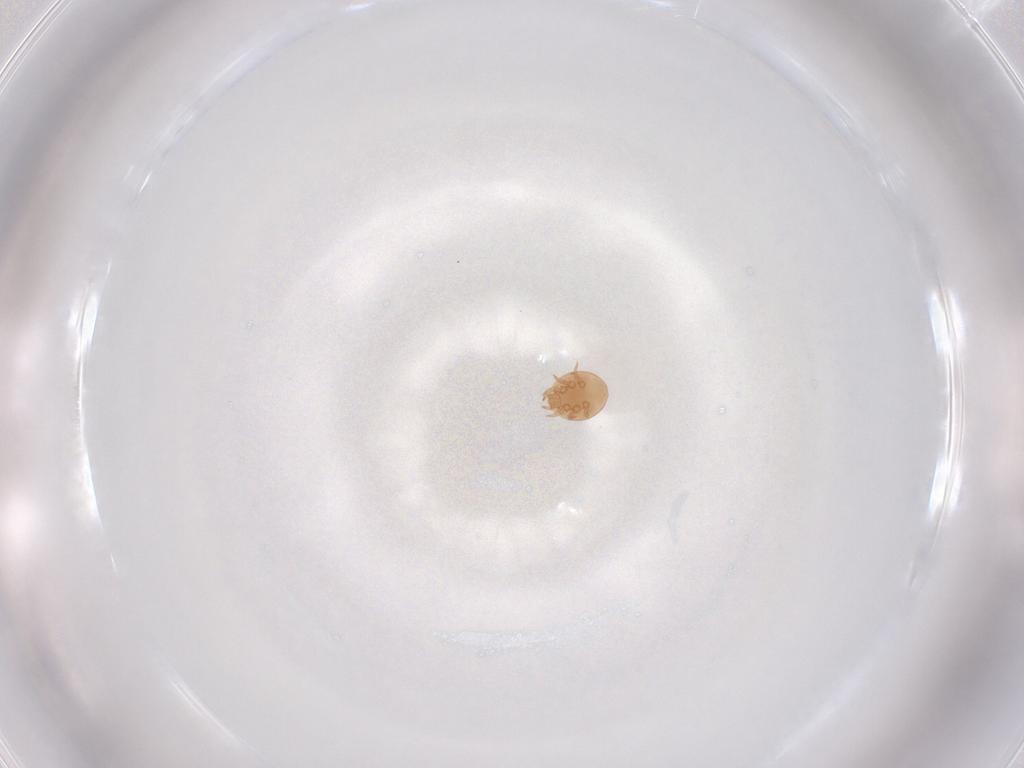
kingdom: Animalia
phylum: Arthropoda
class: Arachnida
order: Mesostigmata
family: Trematuridae
